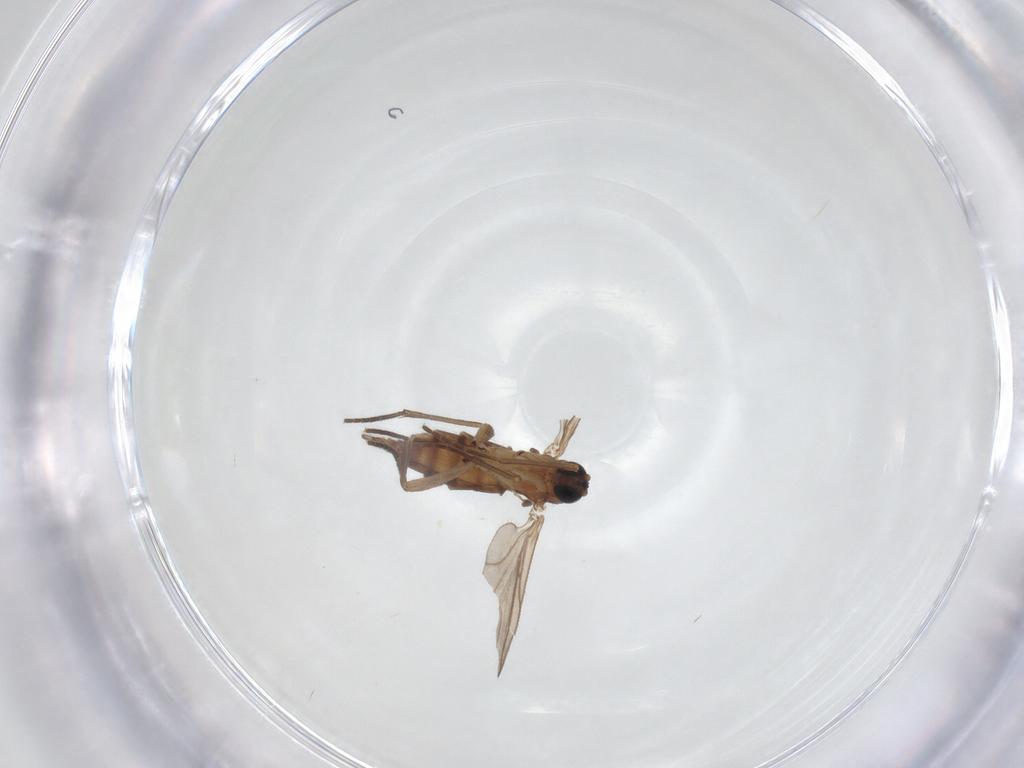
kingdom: Animalia
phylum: Arthropoda
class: Insecta
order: Diptera
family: Sciaridae
